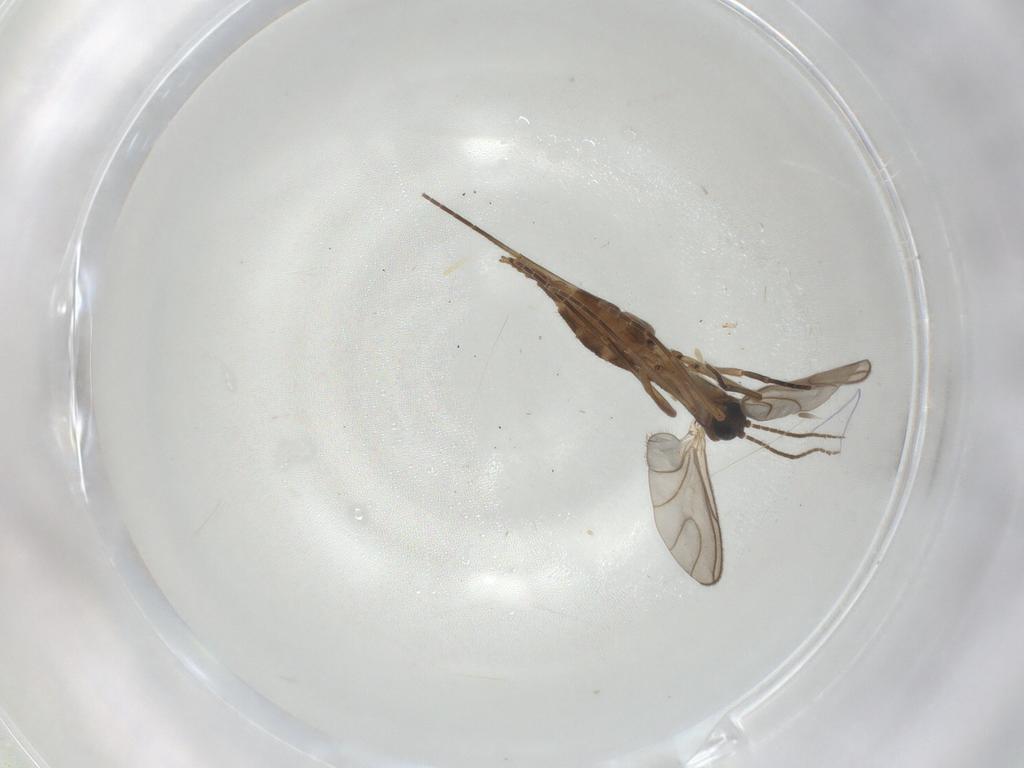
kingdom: Animalia
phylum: Arthropoda
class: Insecta
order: Diptera
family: Sciaridae
